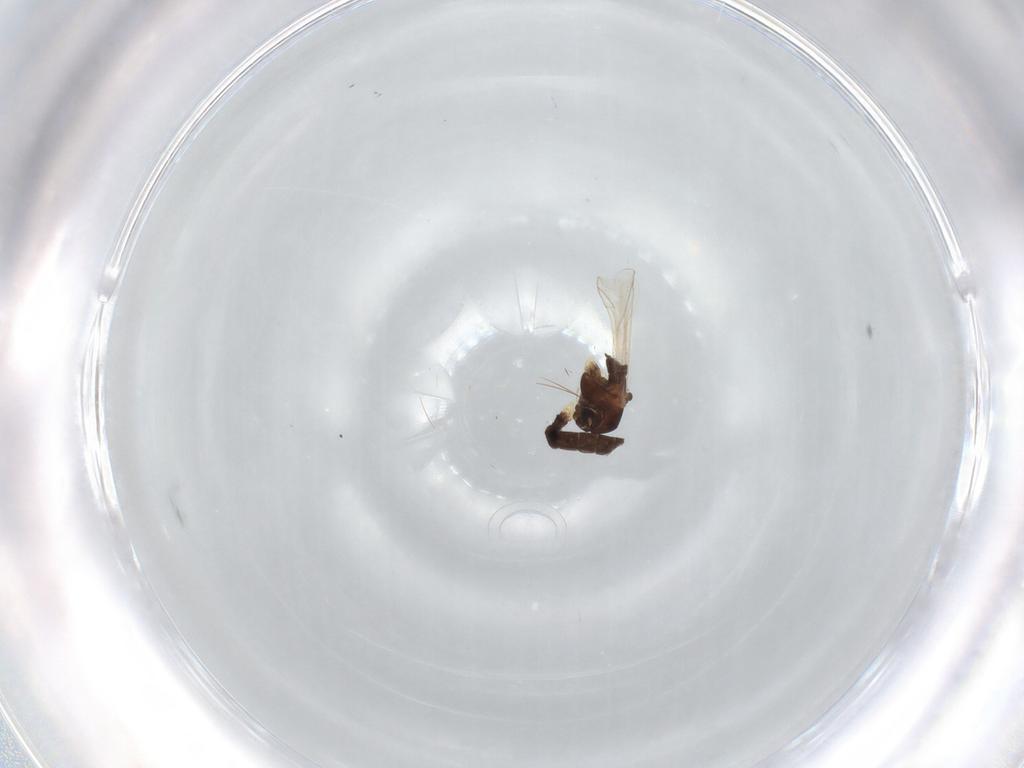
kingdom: Animalia
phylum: Arthropoda
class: Insecta
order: Diptera
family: Chironomidae
